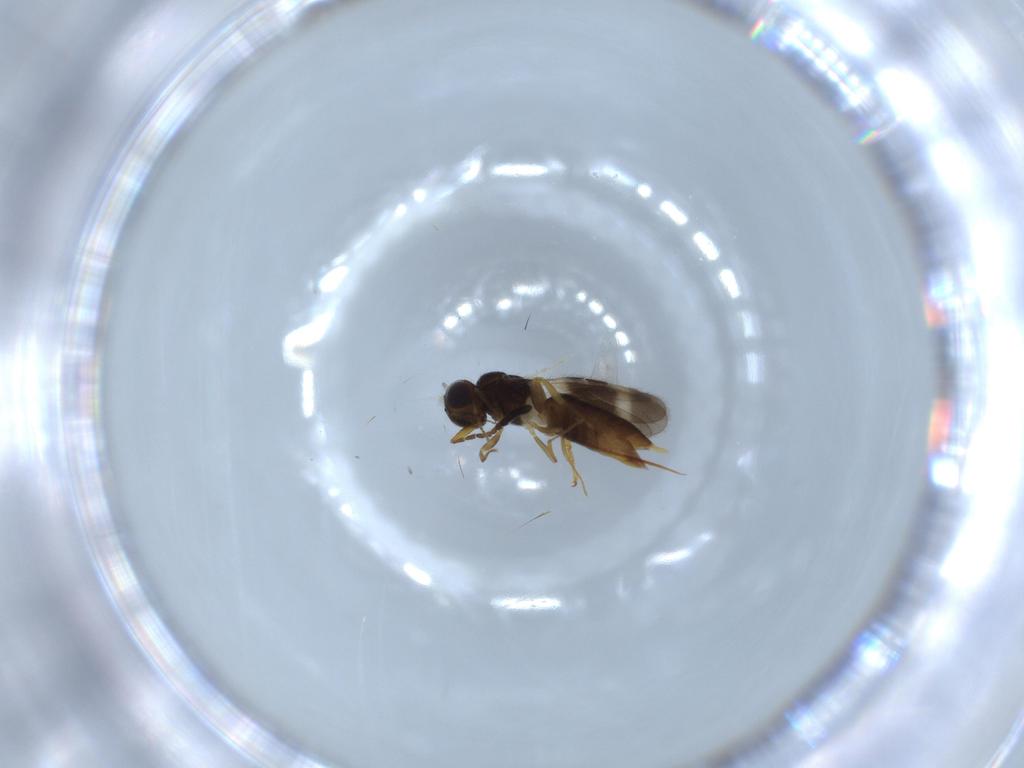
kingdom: Animalia
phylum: Arthropoda
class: Insecta
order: Diptera
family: Sciaridae
